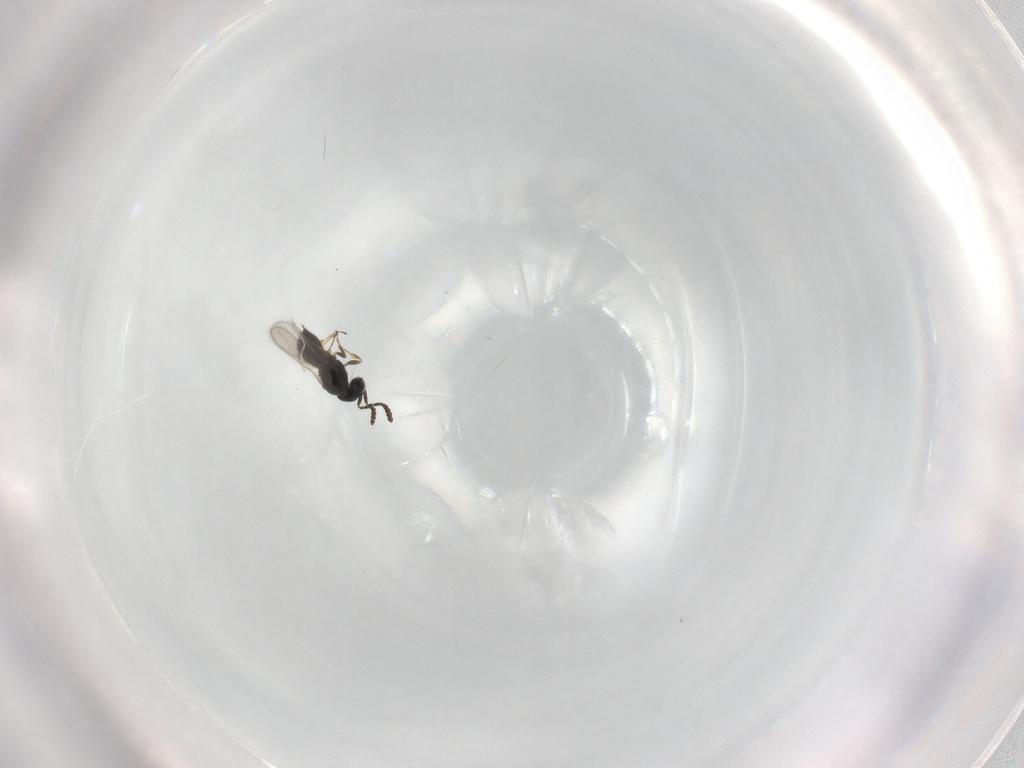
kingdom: Animalia
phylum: Arthropoda
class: Insecta
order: Hymenoptera
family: Scelionidae
